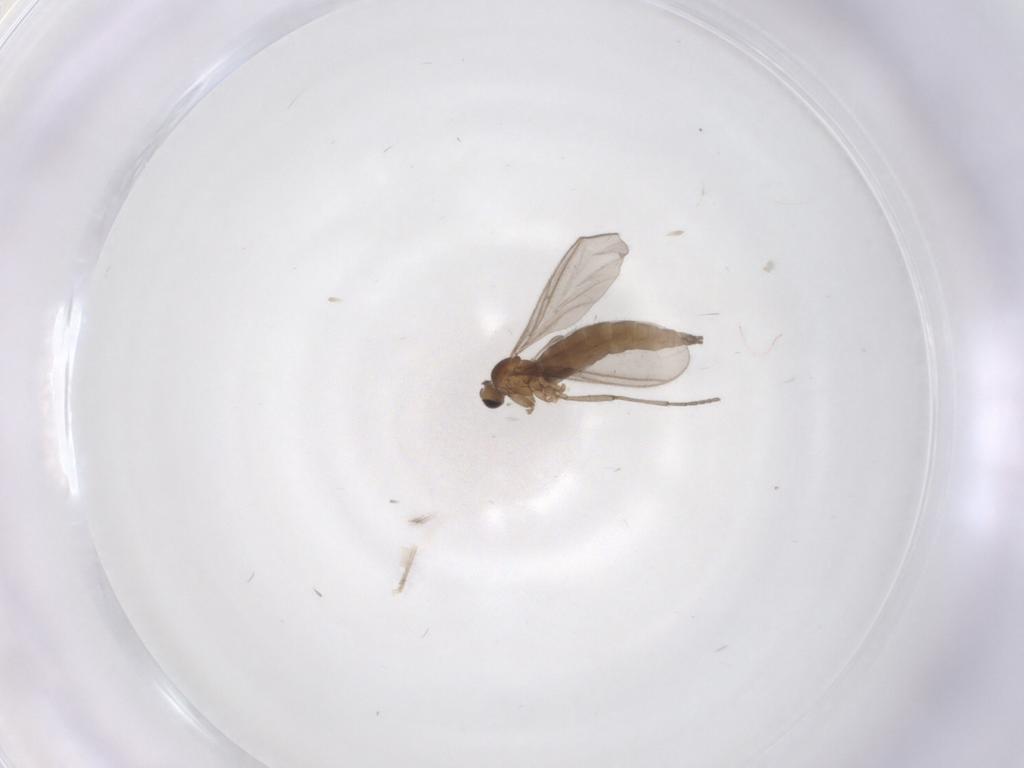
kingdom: Animalia
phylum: Arthropoda
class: Insecta
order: Diptera
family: Sciaridae
